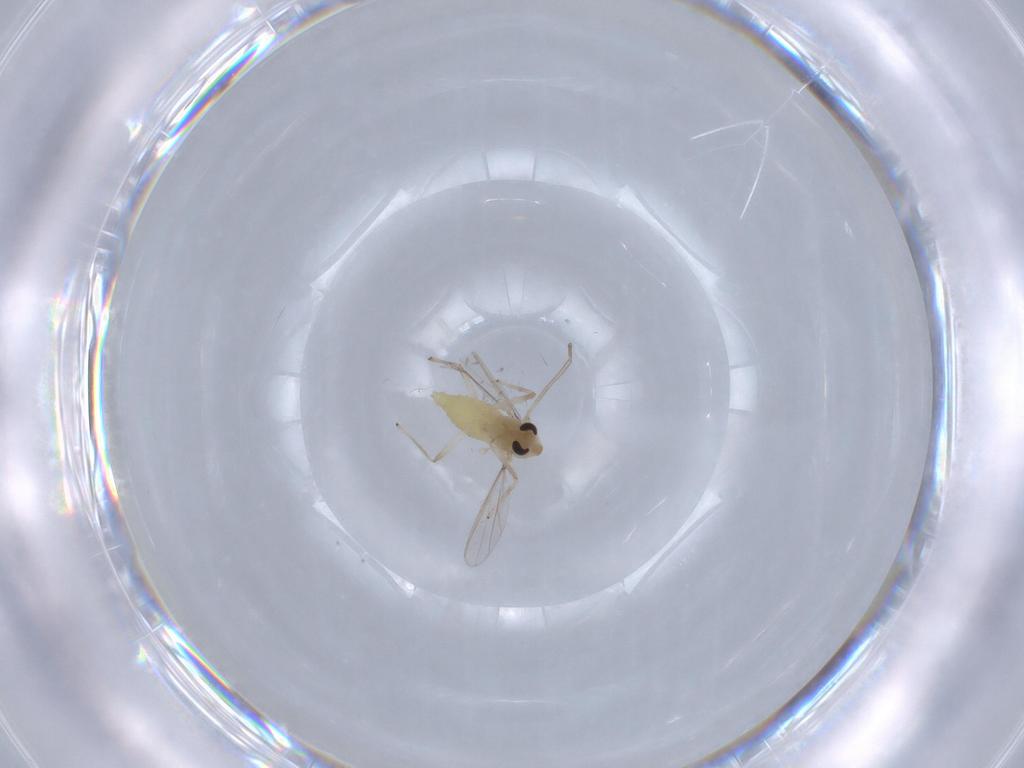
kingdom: Animalia
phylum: Arthropoda
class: Insecta
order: Diptera
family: Chironomidae
